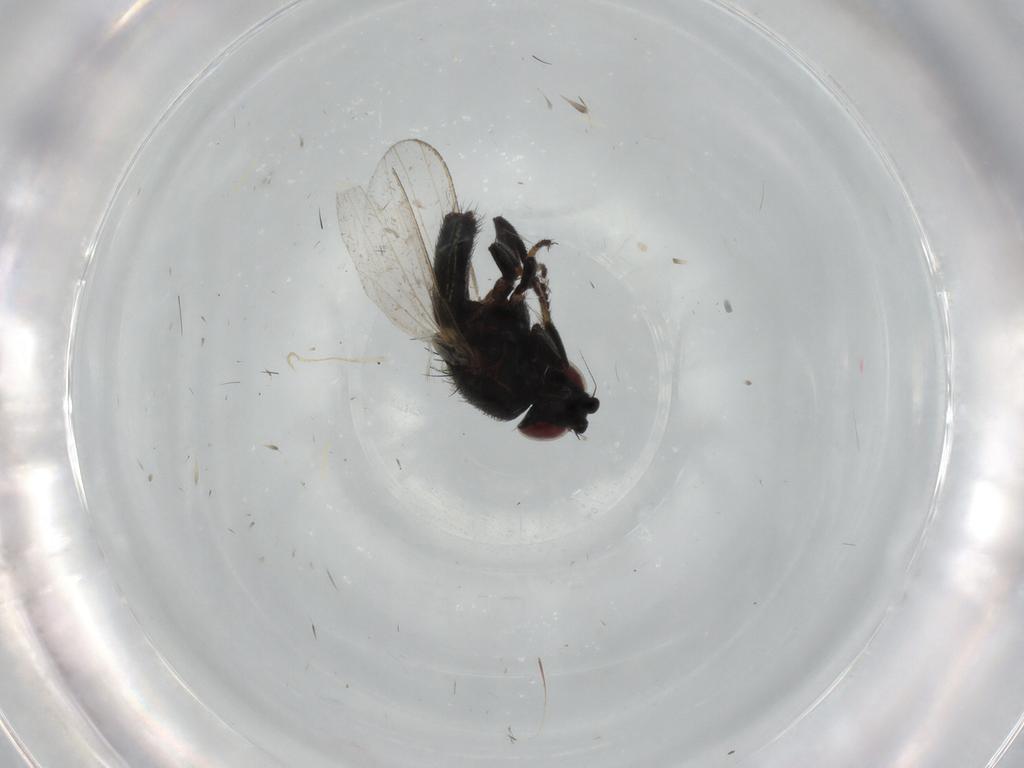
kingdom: Animalia
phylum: Arthropoda
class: Insecta
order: Diptera
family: Milichiidae
